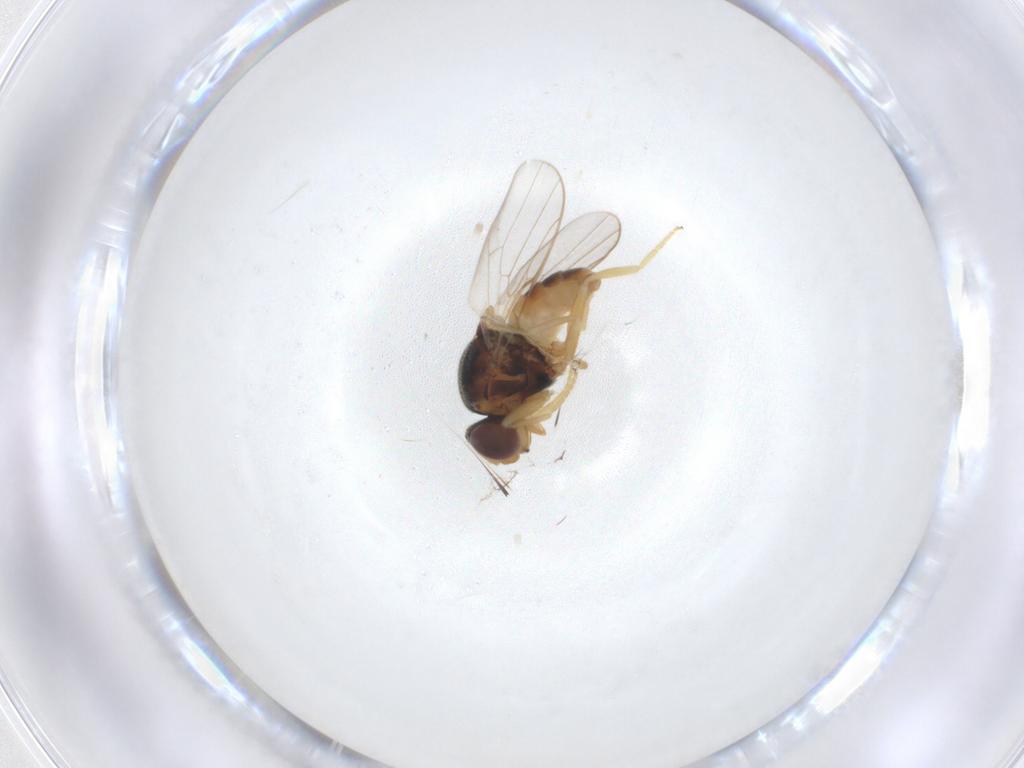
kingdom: Animalia
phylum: Arthropoda
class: Insecta
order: Diptera
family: Chloropidae
